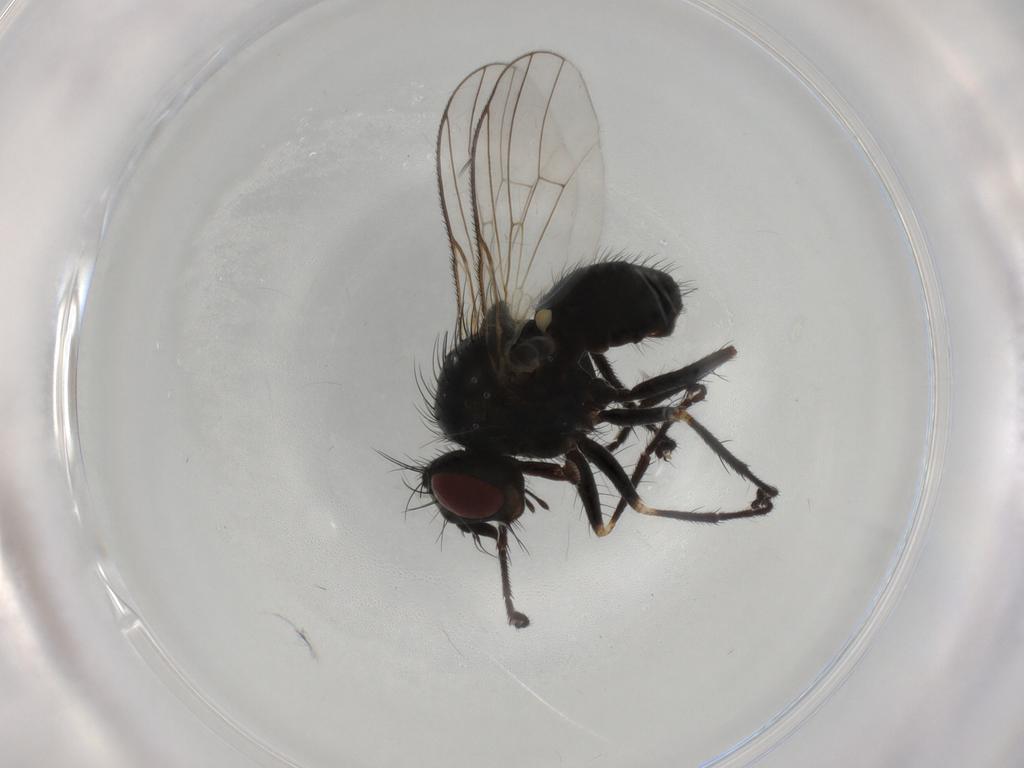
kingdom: Animalia
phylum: Arthropoda
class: Insecta
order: Diptera
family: Muscidae
